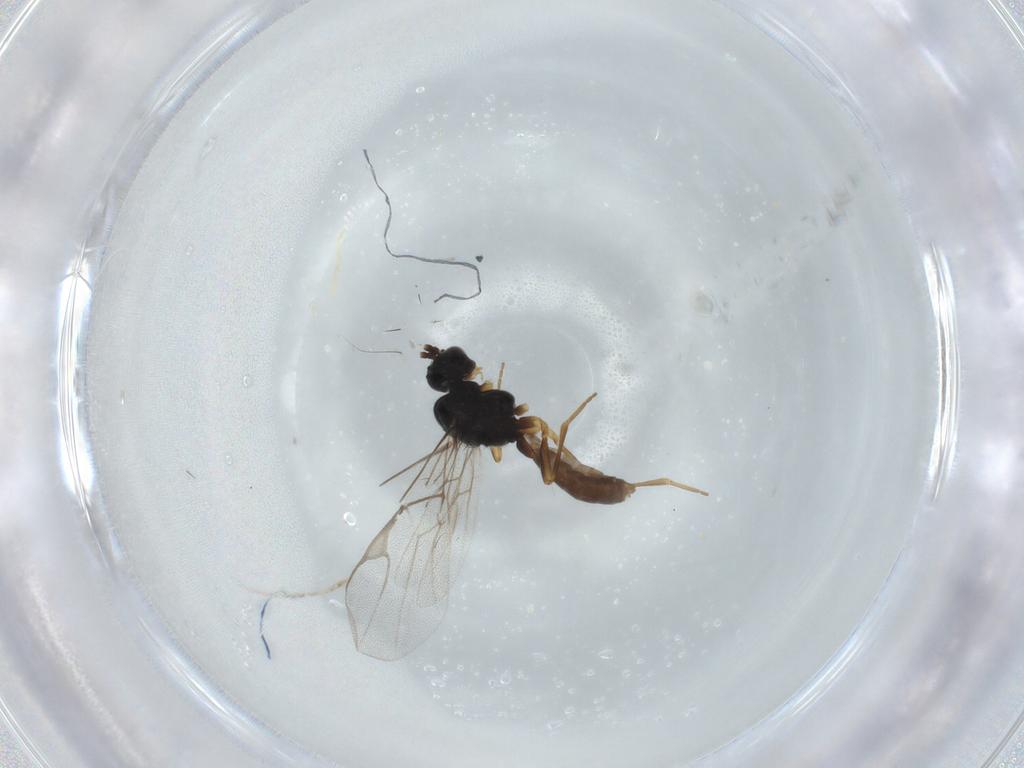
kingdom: Animalia
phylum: Arthropoda
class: Insecta
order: Hymenoptera
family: Braconidae
